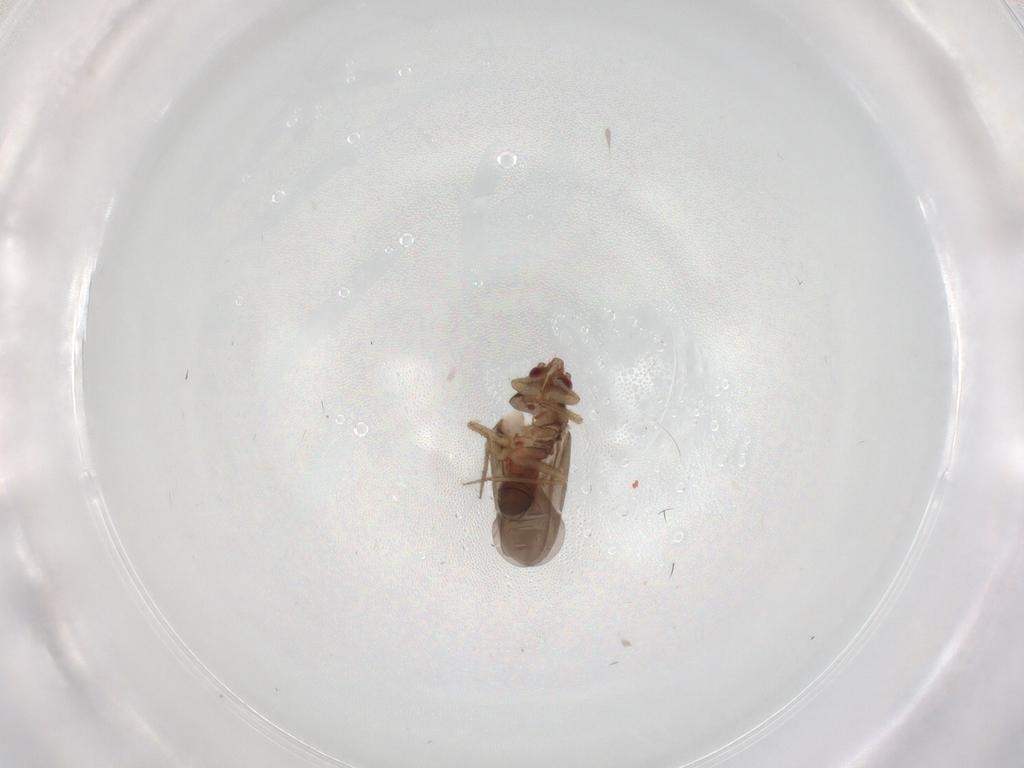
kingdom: Animalia
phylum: Arthropoda
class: Insecta
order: Hemiptera
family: Ceratocombidae
